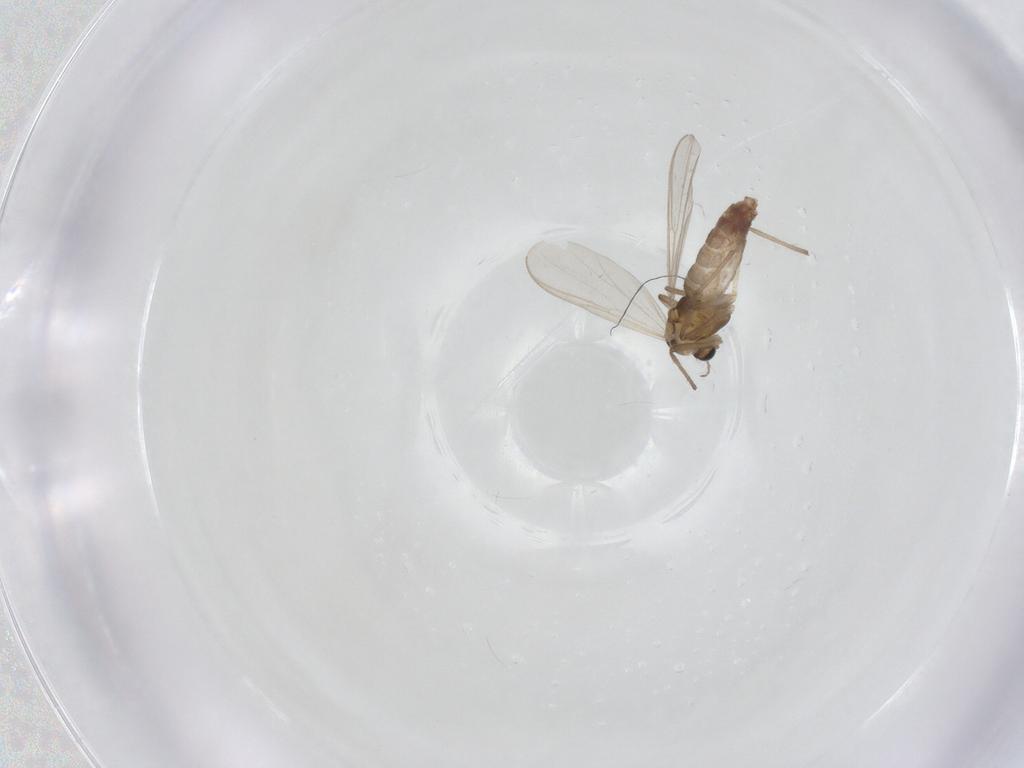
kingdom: Animalia
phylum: Arthropoda
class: Insecta
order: Diptera
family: Chironomidae
